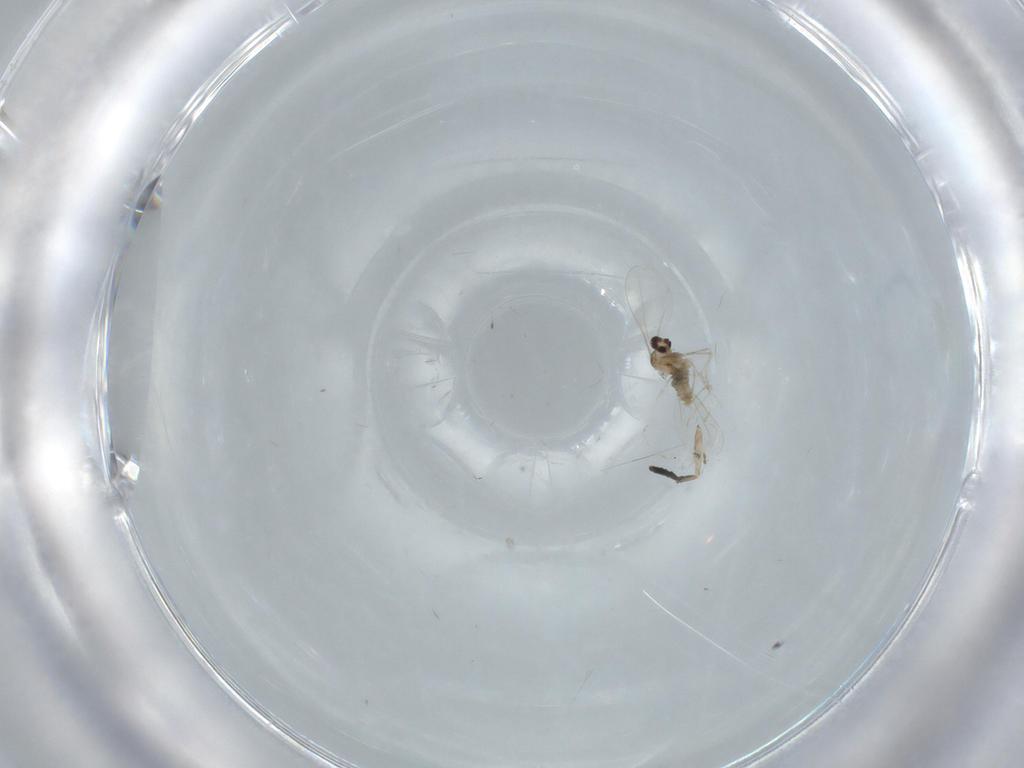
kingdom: Animalia
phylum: Arthropoda
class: Insecta
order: Diptera
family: Cecidomyiidae
